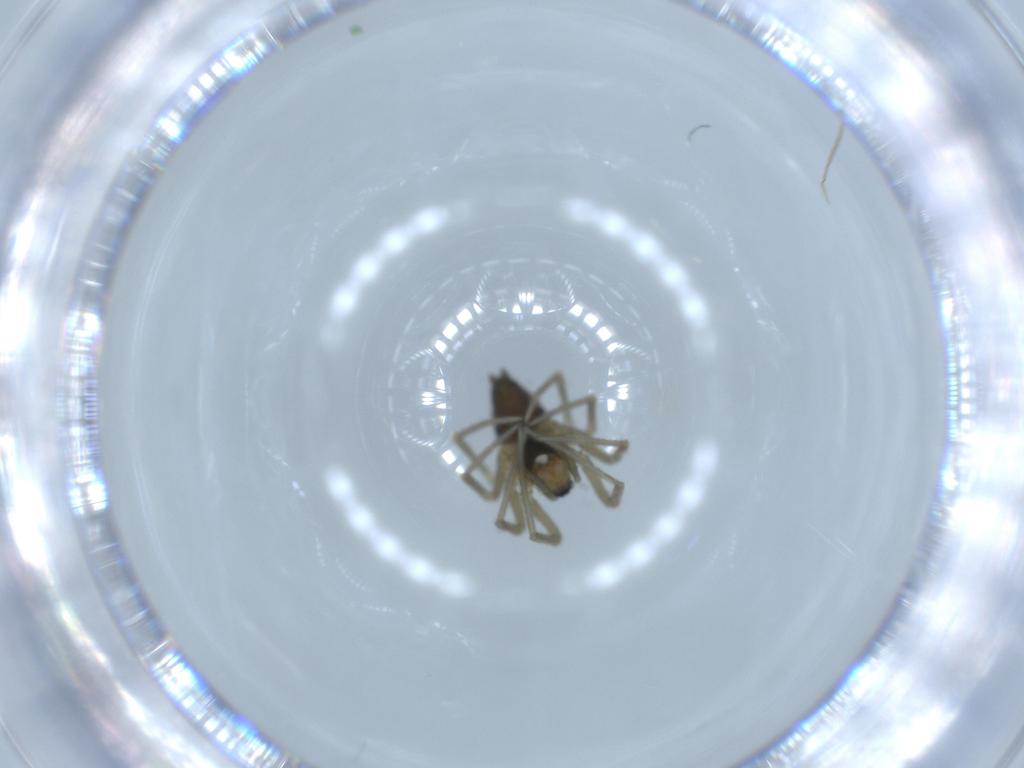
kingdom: Animalia
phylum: Arthropoda
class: Arachnida
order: Araneae
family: Linyphiidae
